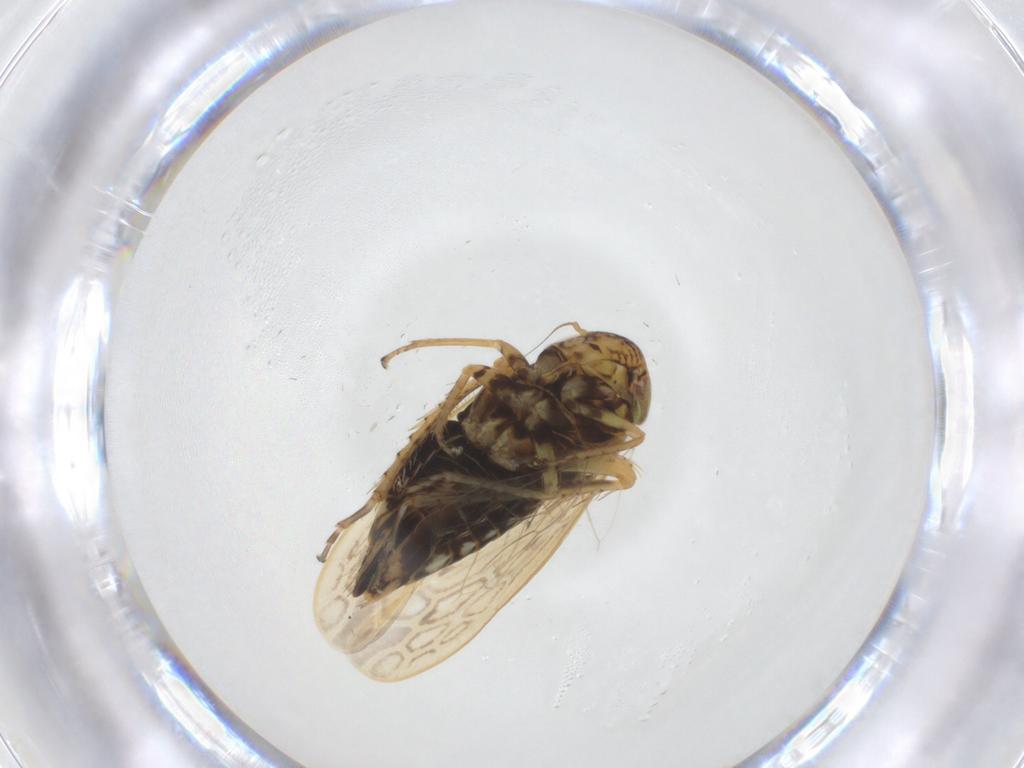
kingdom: Animalia
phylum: Arthropoda
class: Insecta
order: Hemiptera
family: Cicadellidae
